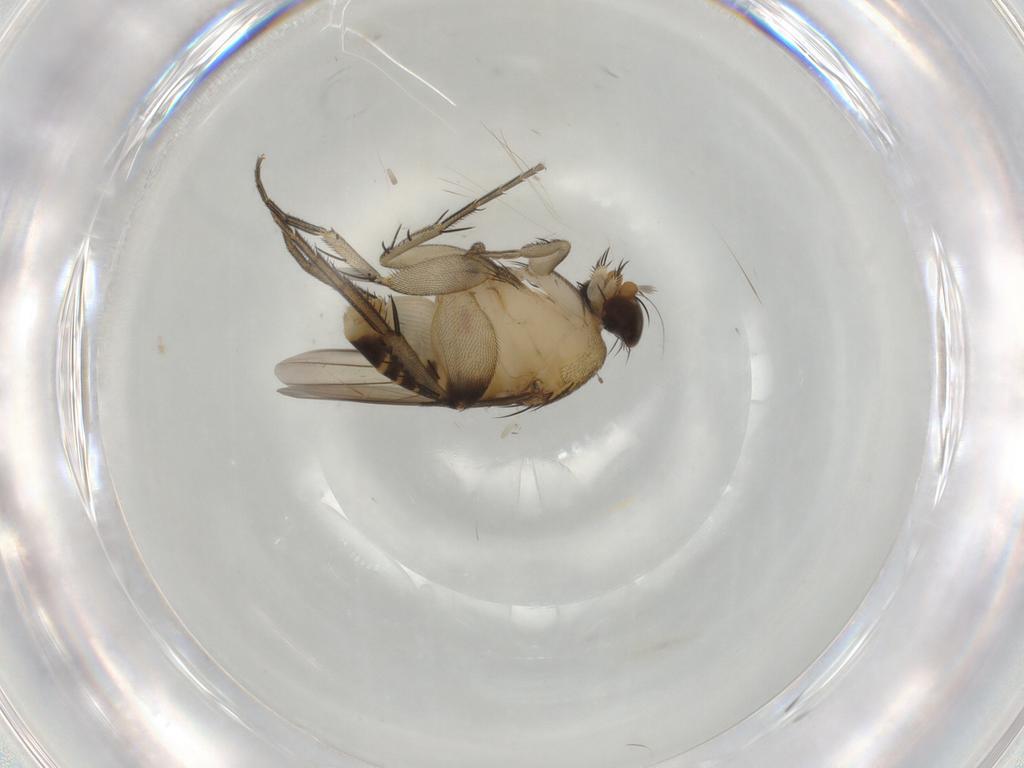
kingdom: Animalia
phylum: Arthropoda
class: Insecta
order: Diptera
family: Phoridae
